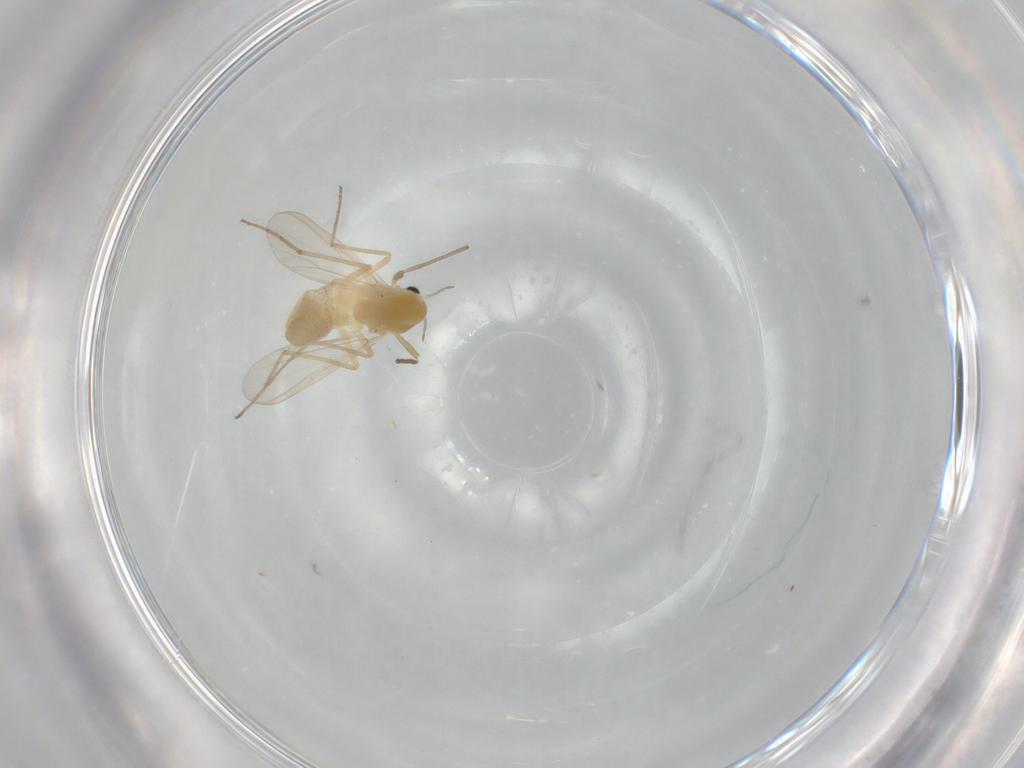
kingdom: Animalia
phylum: Arthropoda
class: Insecta
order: Diptera
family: Chironomidae
